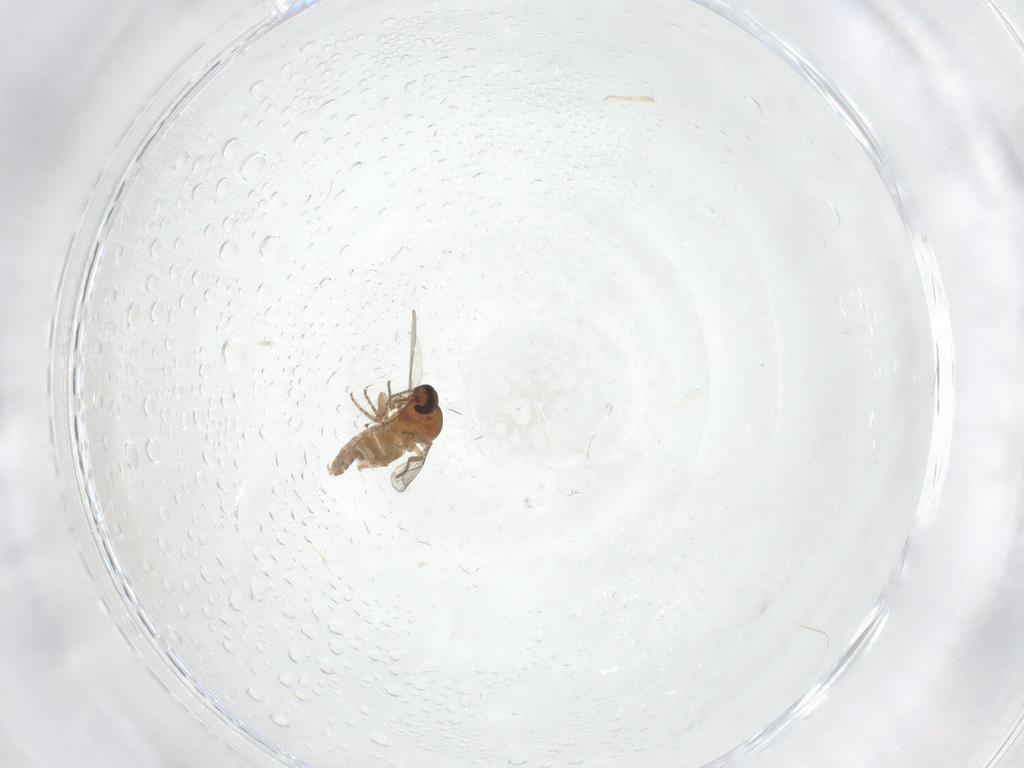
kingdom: Animalia
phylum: Arthropoda
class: Insecta
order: Diptera
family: Ceratopogonidae
